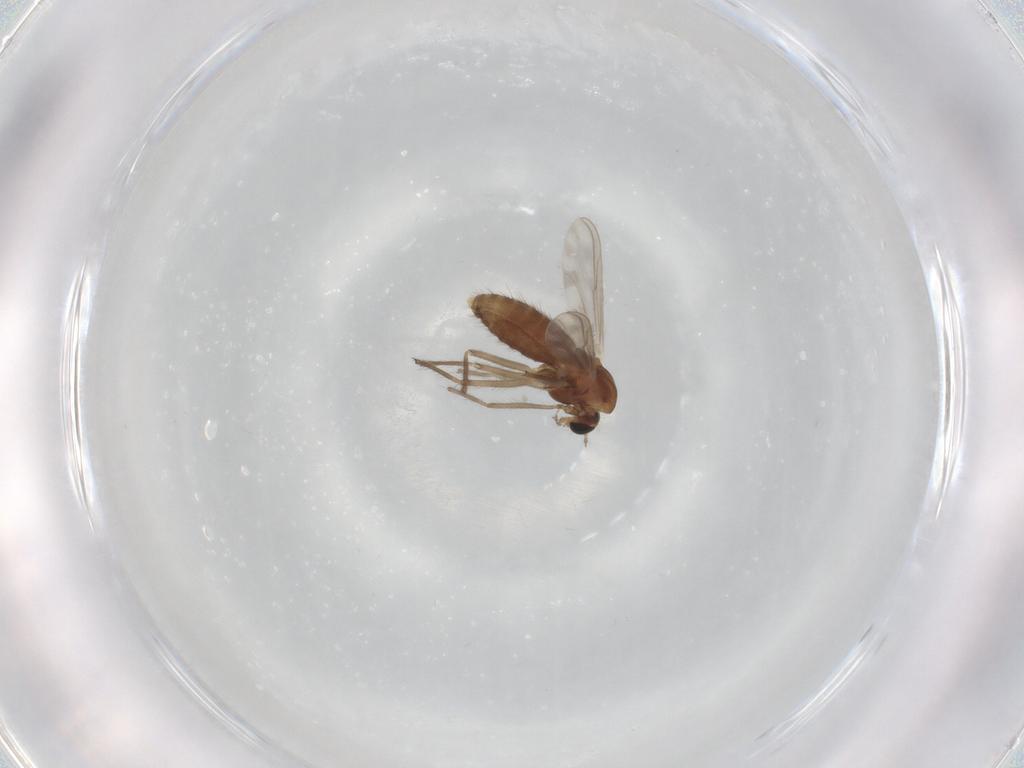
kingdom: Animalia
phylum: Arthropoda
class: Insecta
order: Diptera
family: Chironomidae
